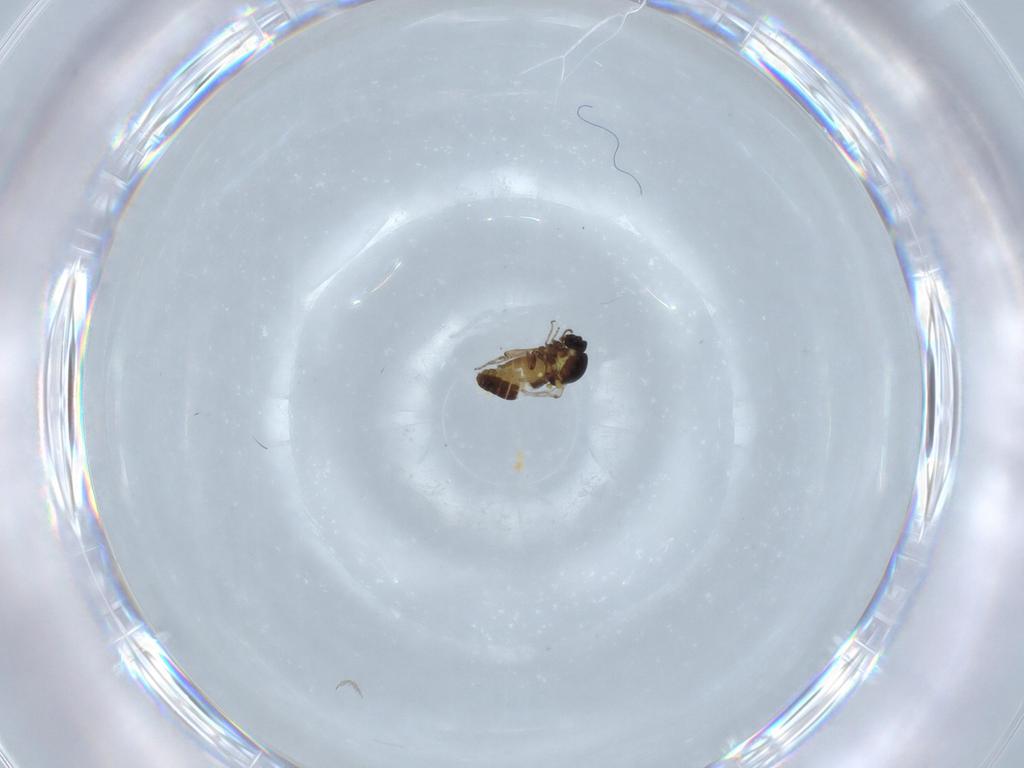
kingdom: Animalia
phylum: Arthropoda
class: Insecta
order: Diptera
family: Ceratopogonidae
